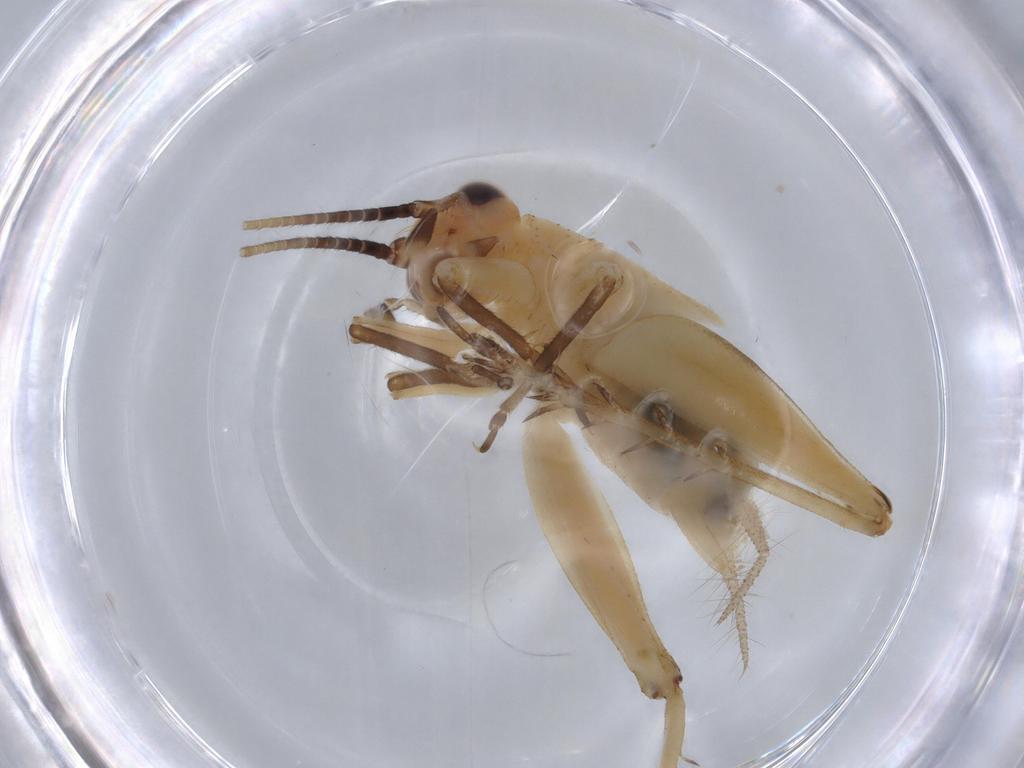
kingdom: Animalia
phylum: Arthropoda
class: Insecta
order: Orthoptera
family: Trigonidiidae
